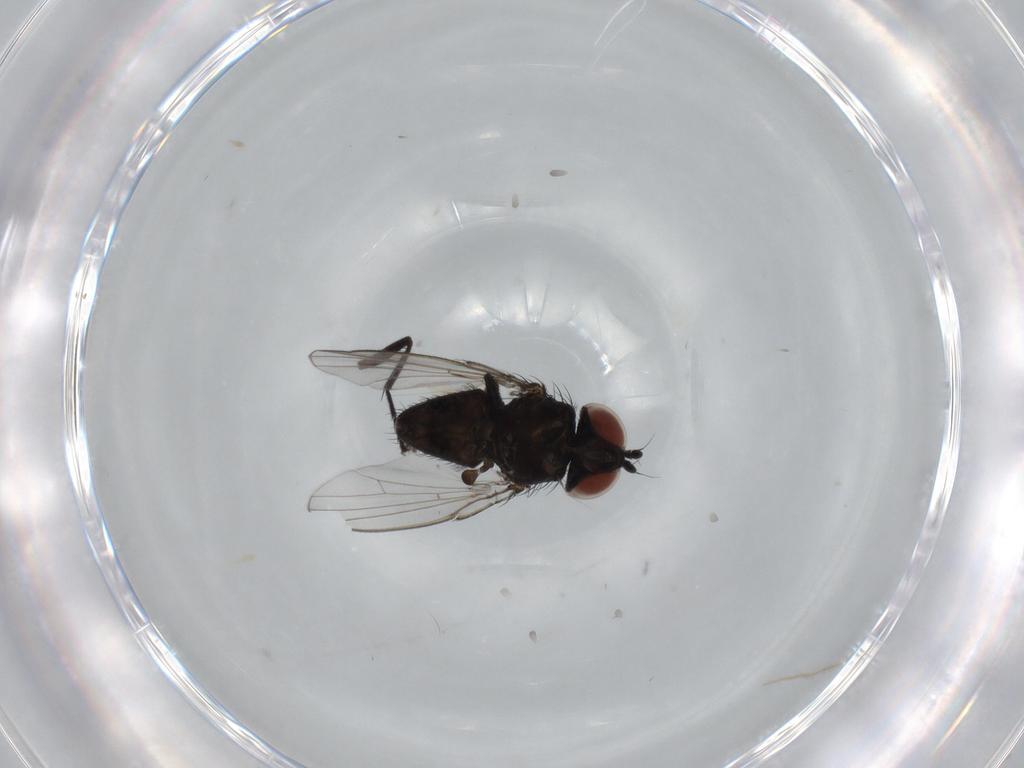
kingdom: Animalia
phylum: Arthropoda
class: Insecta
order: Diptera
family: Milichiidae
